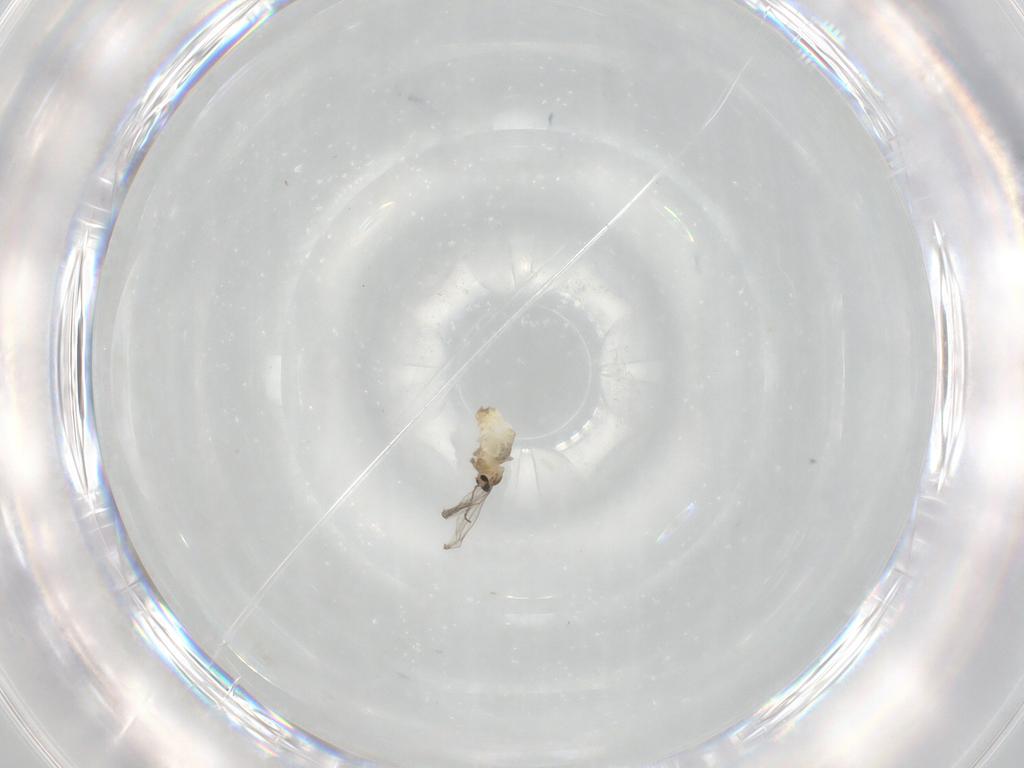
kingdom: Animalia
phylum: Arthropoda
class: Insecta
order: Diptera
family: Cecidomyiidae
